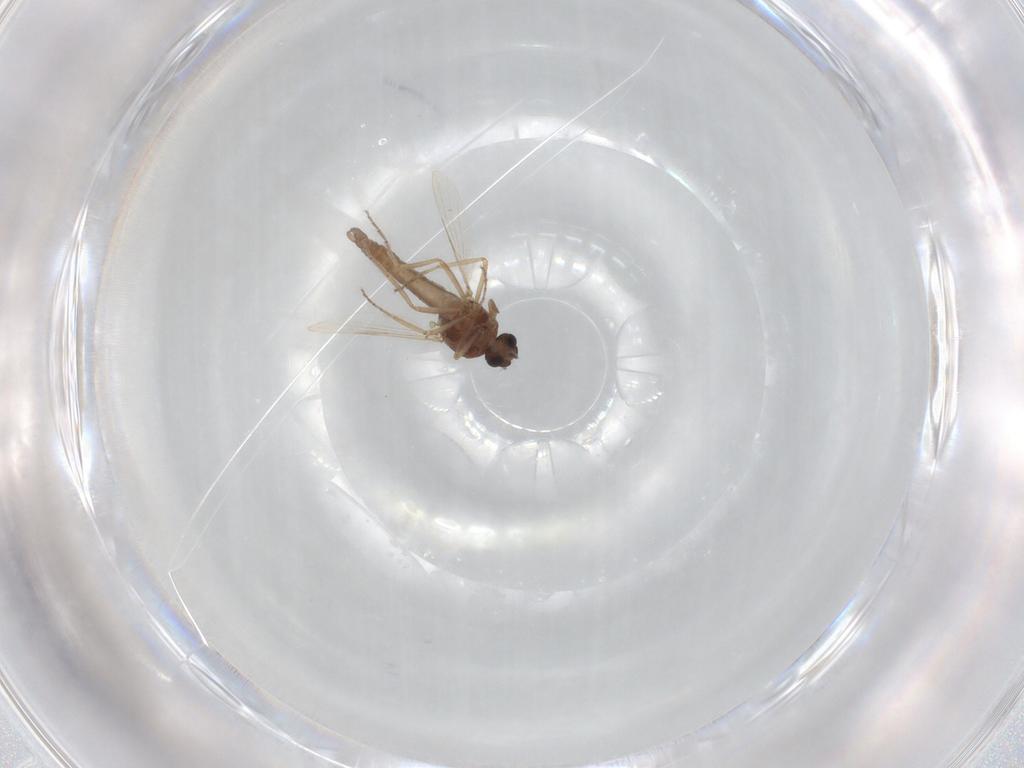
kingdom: Animalia
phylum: Arthropoda
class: Insecta
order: Diptera
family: Ceratopogonidae
